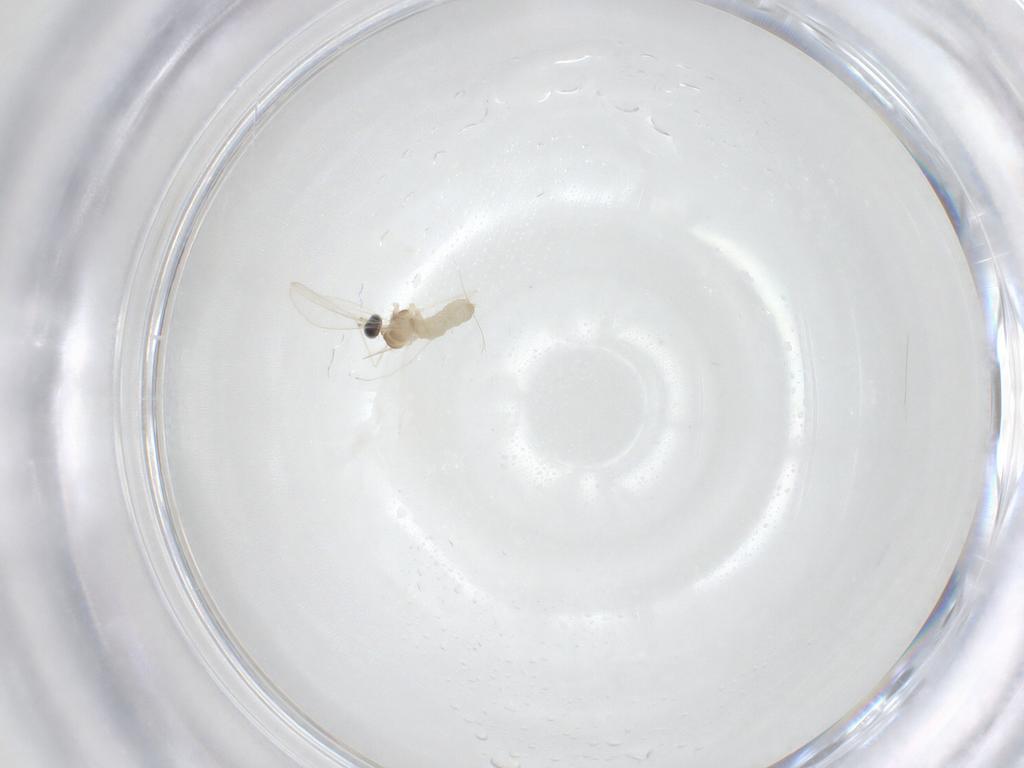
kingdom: Animalia
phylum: Arthropoda
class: Insecta
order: Diptera
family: Cecidomyiidae
